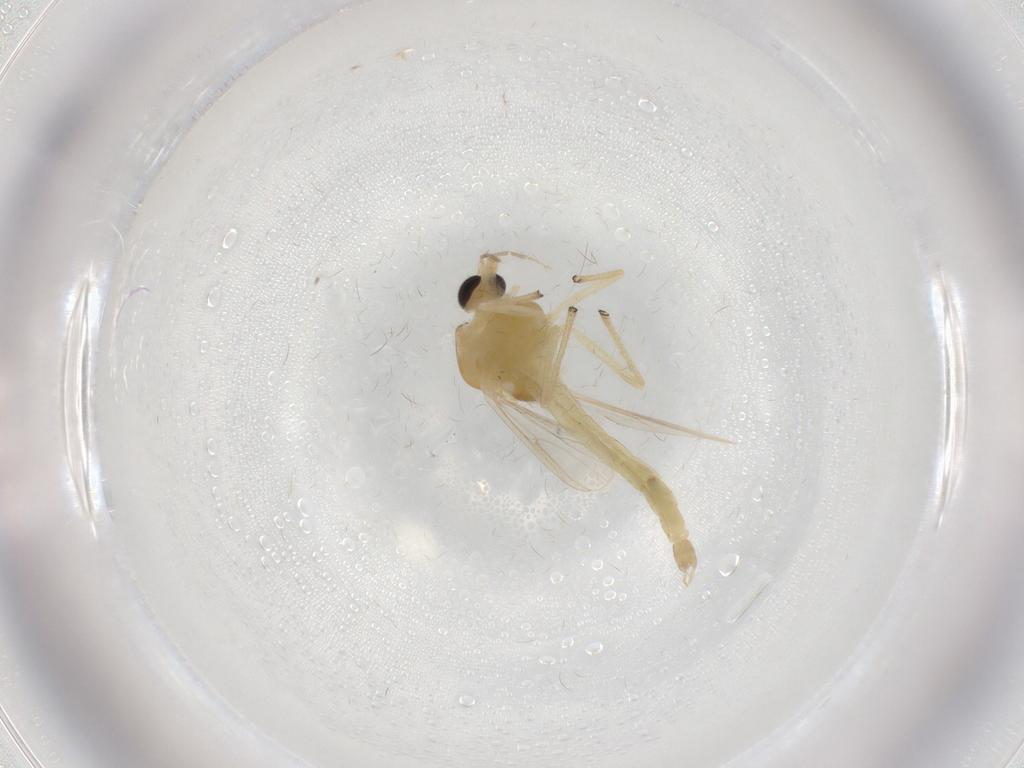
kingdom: Animalia
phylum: Arthropoda
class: Insecta
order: Diptera
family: Chironomidae
